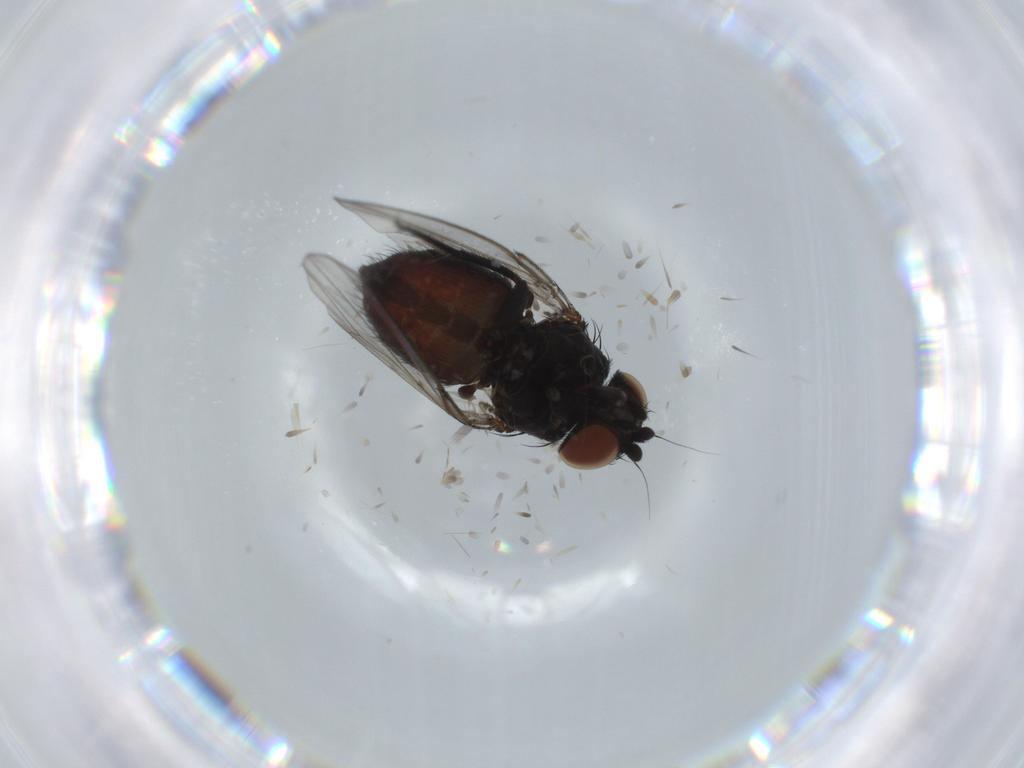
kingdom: Animalia
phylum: Arthropoda
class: Insecta
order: Diptera
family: Milichiidae
